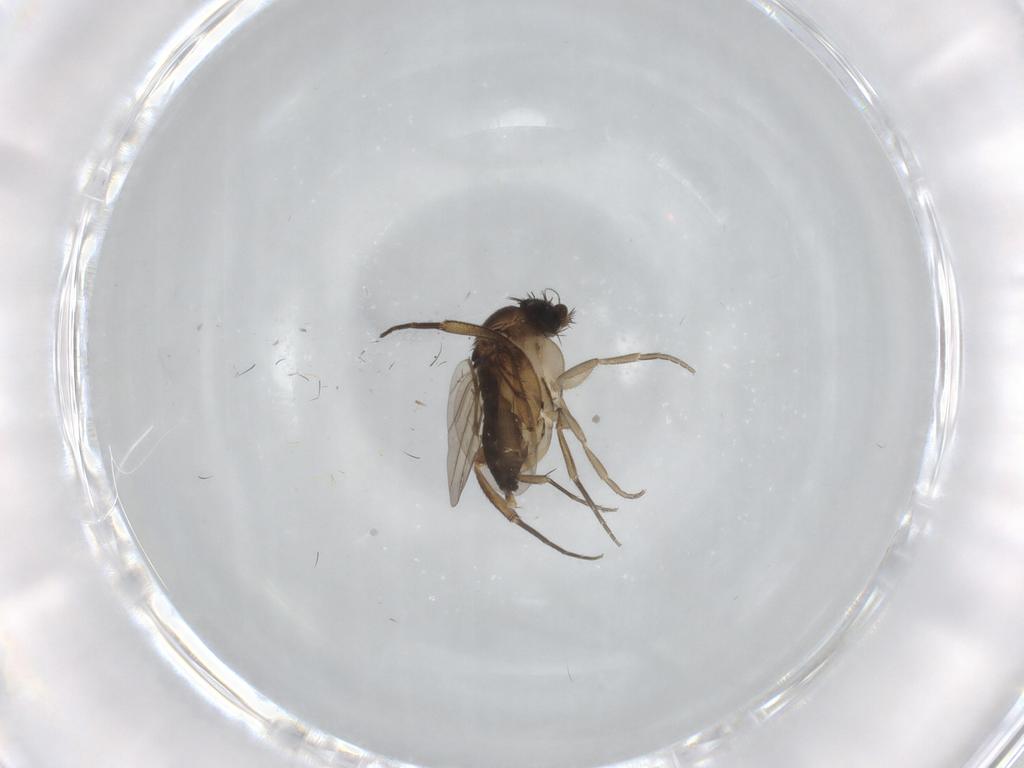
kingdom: Animalia
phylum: Arthropoda
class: Insecta
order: Diptera
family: Phoridae
